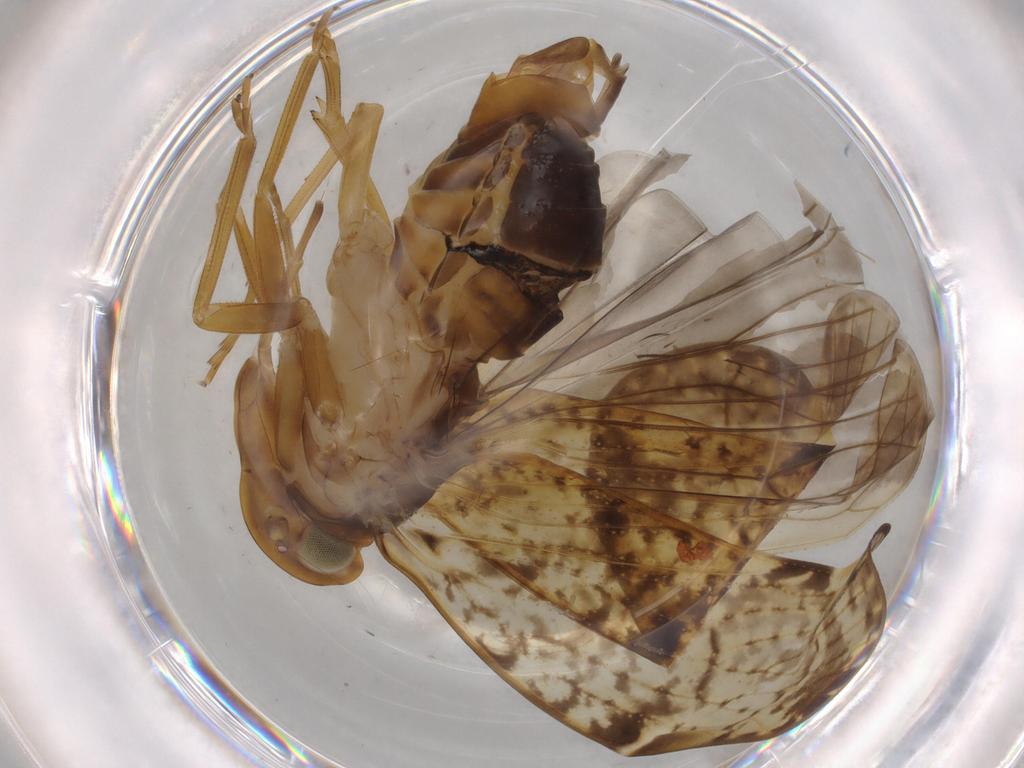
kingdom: Animalia
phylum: Arthropoda
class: Insecta
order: Hemiptera
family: Cixiidae
